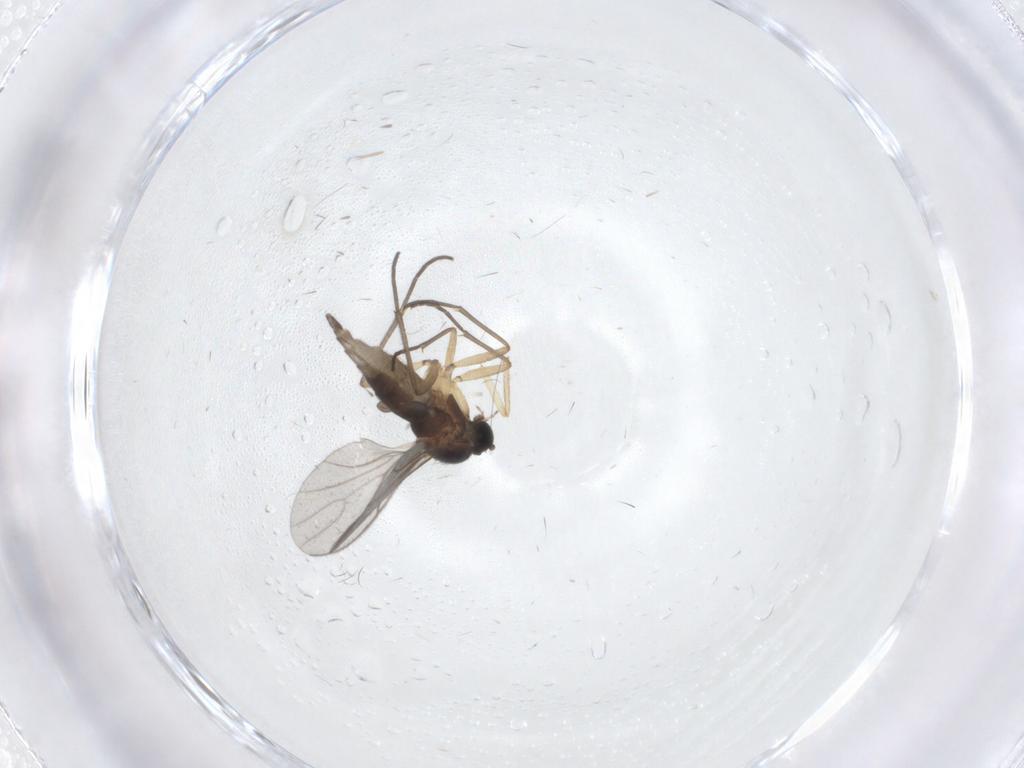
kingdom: Animalia
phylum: Arthropoda
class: Insecta
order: Diptera
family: Sciaridae
